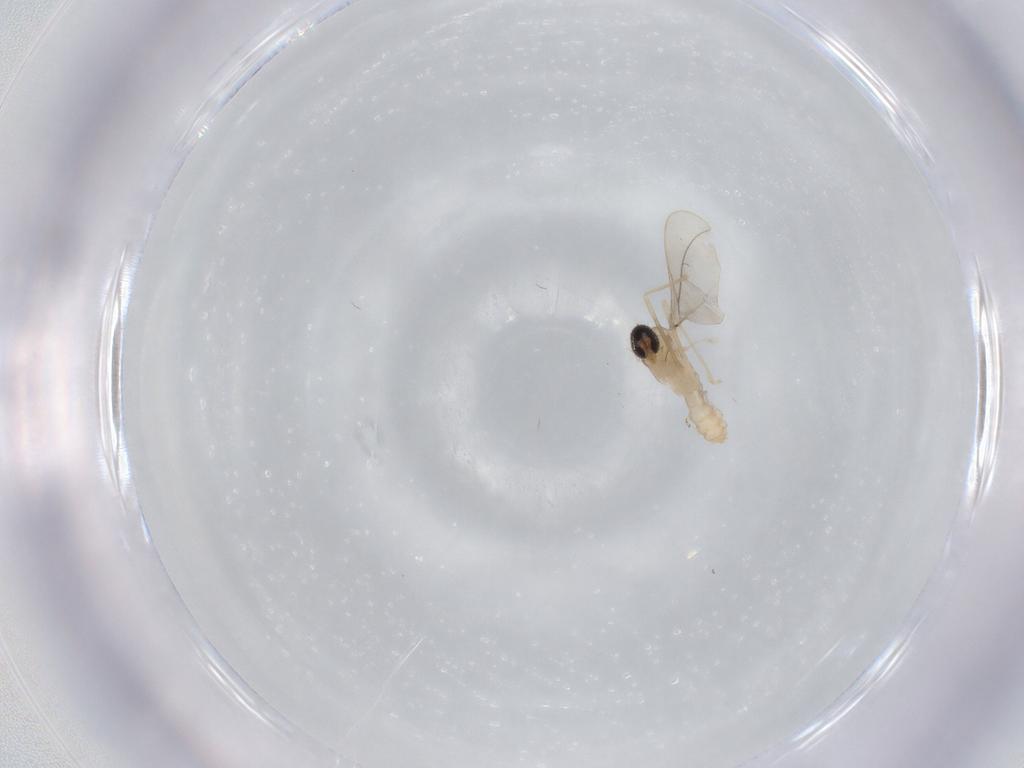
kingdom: Animalia
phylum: Arthropoda
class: Insecta
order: Diptera
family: Cecidomyiidae
